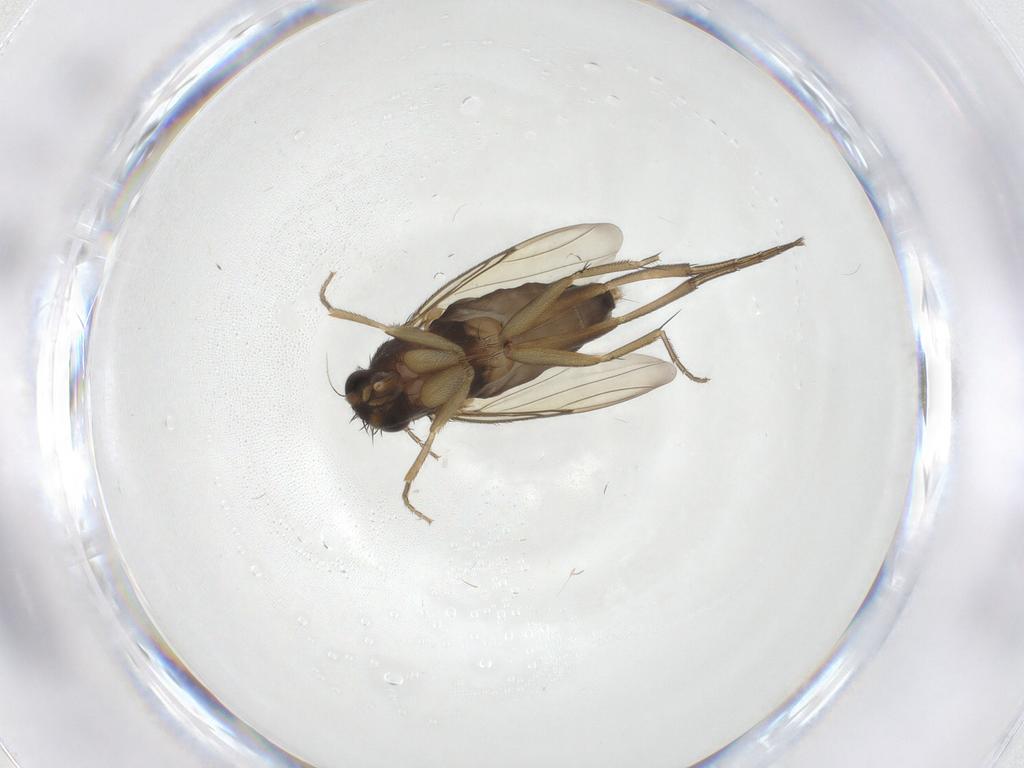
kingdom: Animalia
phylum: Arthropoda
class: Insecta
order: Diptera
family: Phoridae
